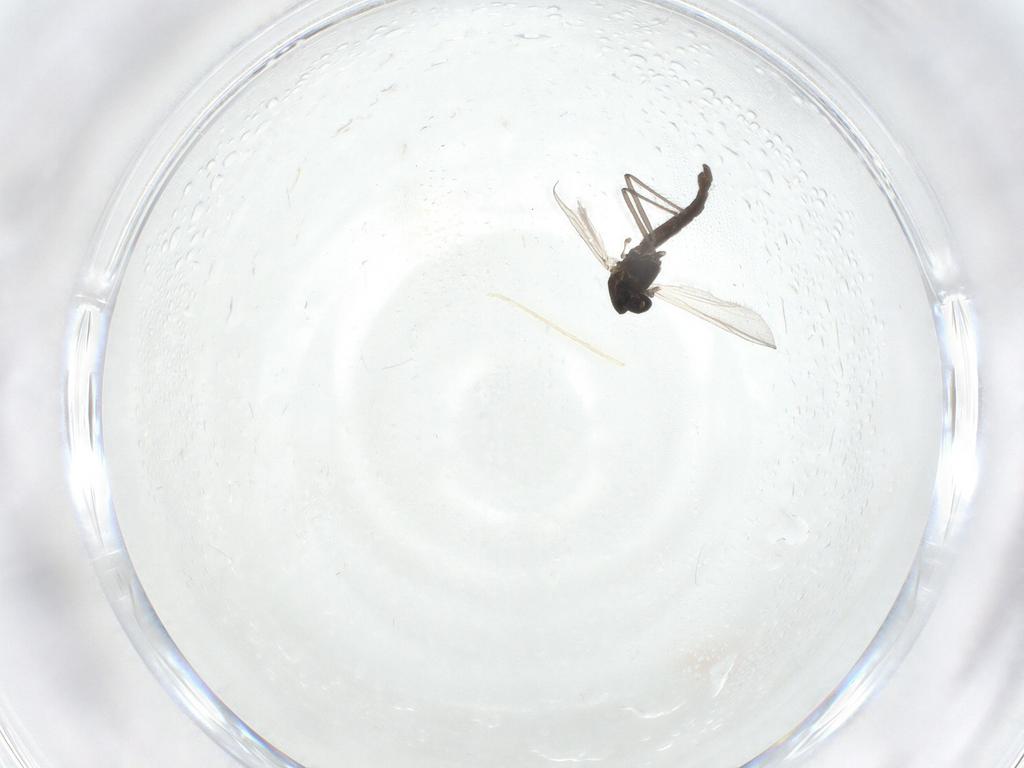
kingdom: Animalia
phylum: Arthropoda
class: Insecta
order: Diptera
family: Chironomidae
